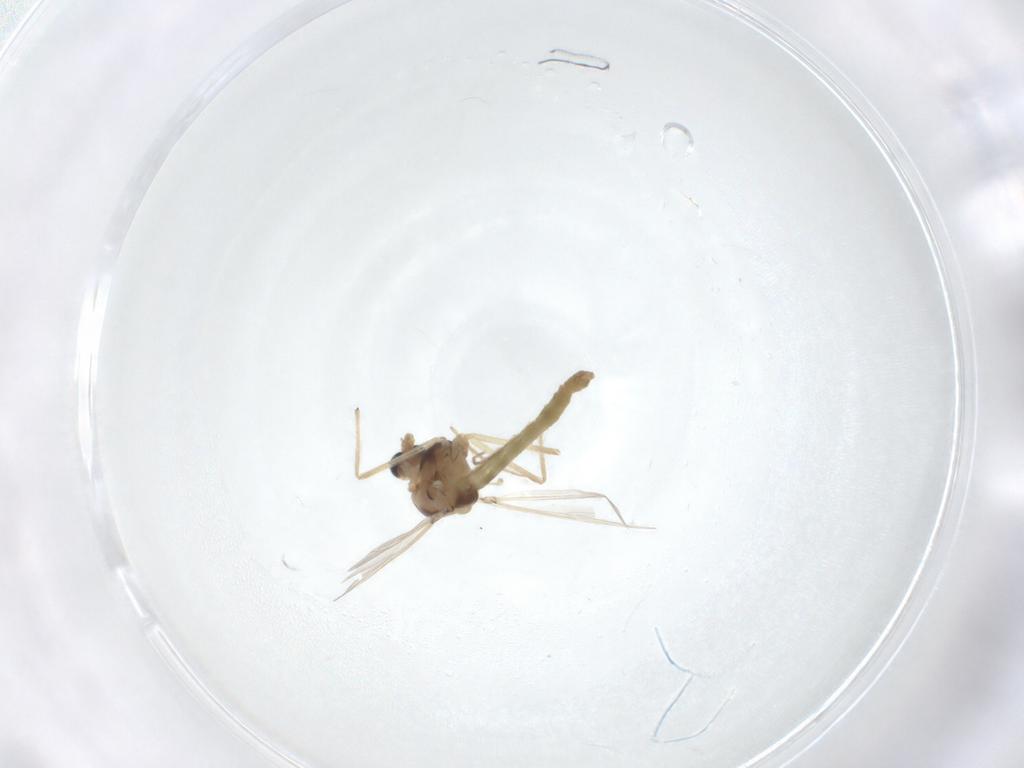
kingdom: Animalia
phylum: Arthropoda
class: Insecta
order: Diptera
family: Chironomidae
